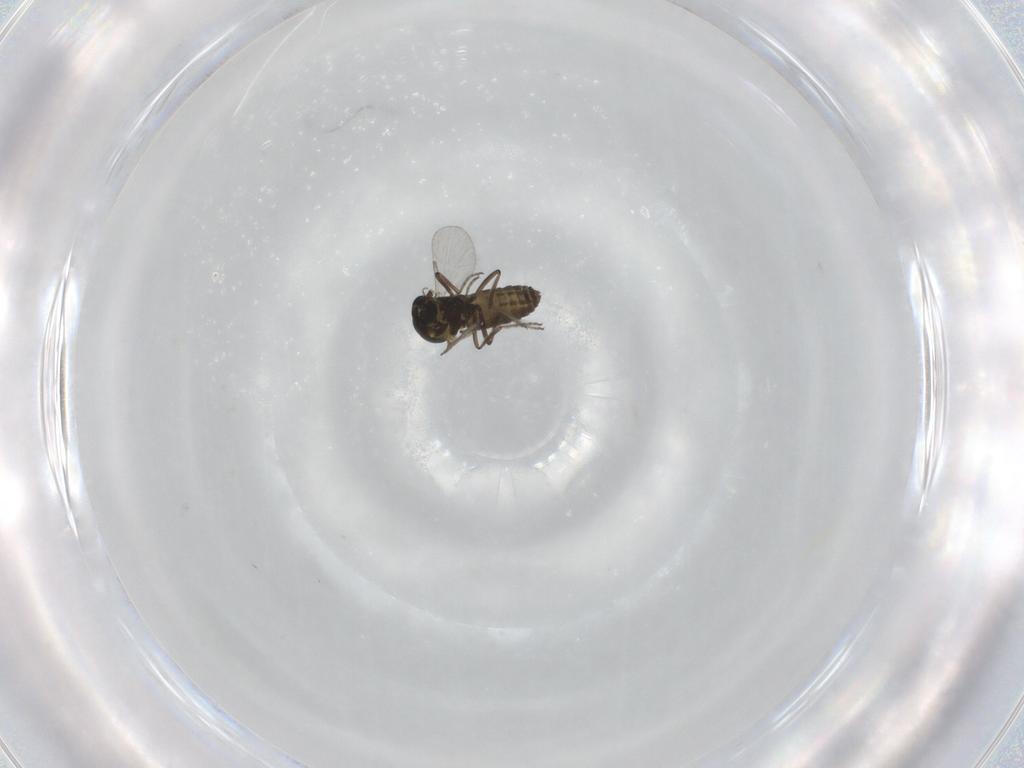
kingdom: Animalia
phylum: Arthropoda
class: Insecta
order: Diptera
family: Ceratopogonidae
